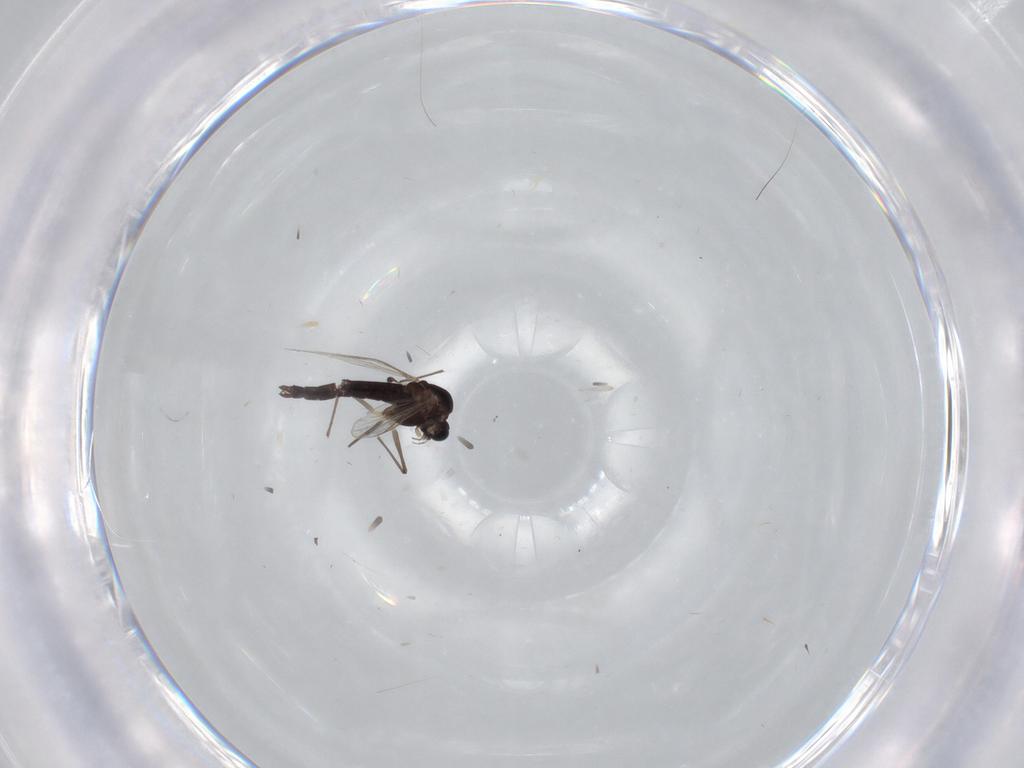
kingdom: Animalia
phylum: Arthropoda
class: Insecta
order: Diptera
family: Chironomidae
